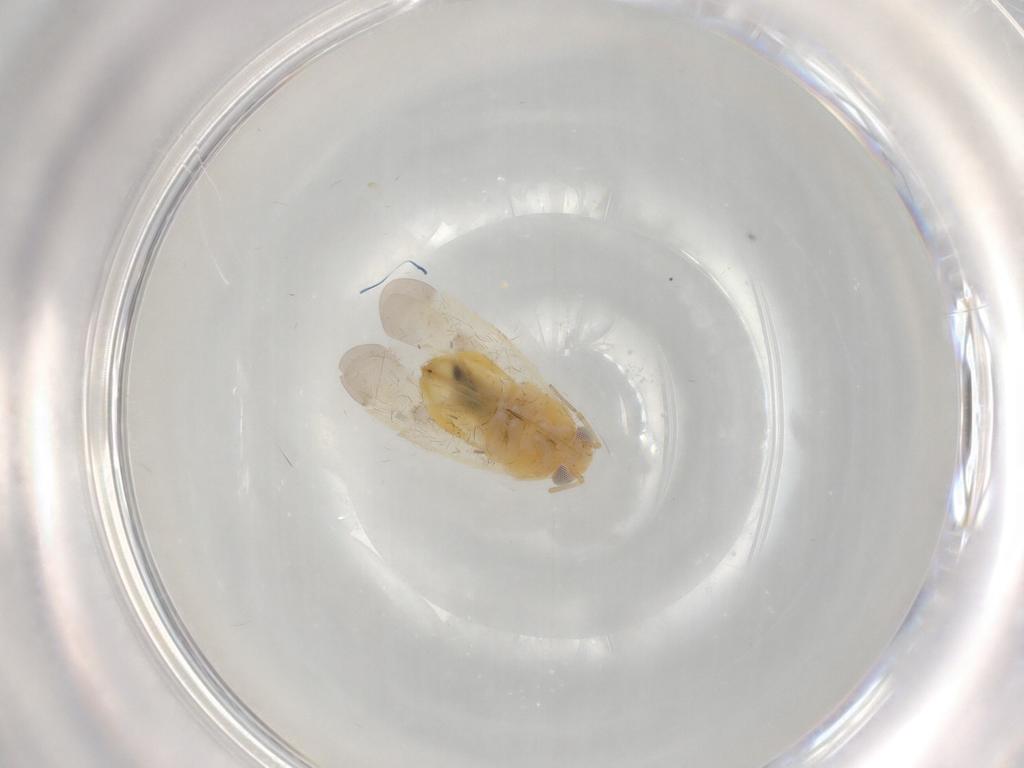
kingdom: Animalia
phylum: Arthropoda
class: Insecta
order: Hemiptera
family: Miridae
